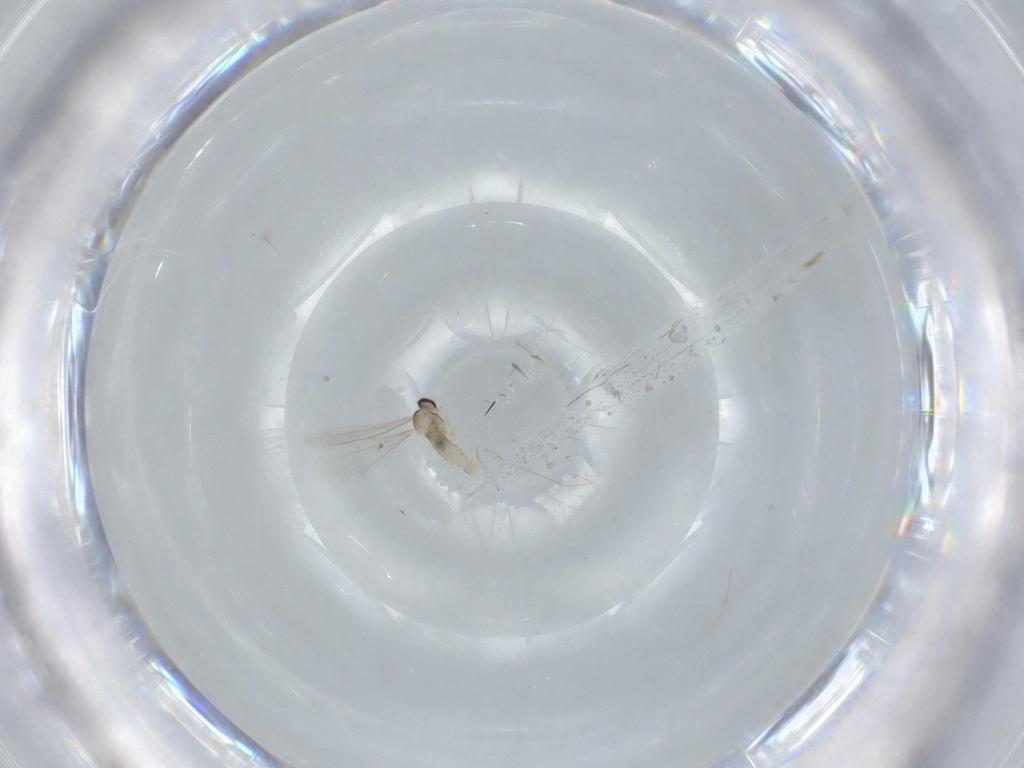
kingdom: Animalia
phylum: Arthropoda
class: Insecta
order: Diptera
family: Cecidomyiidae
